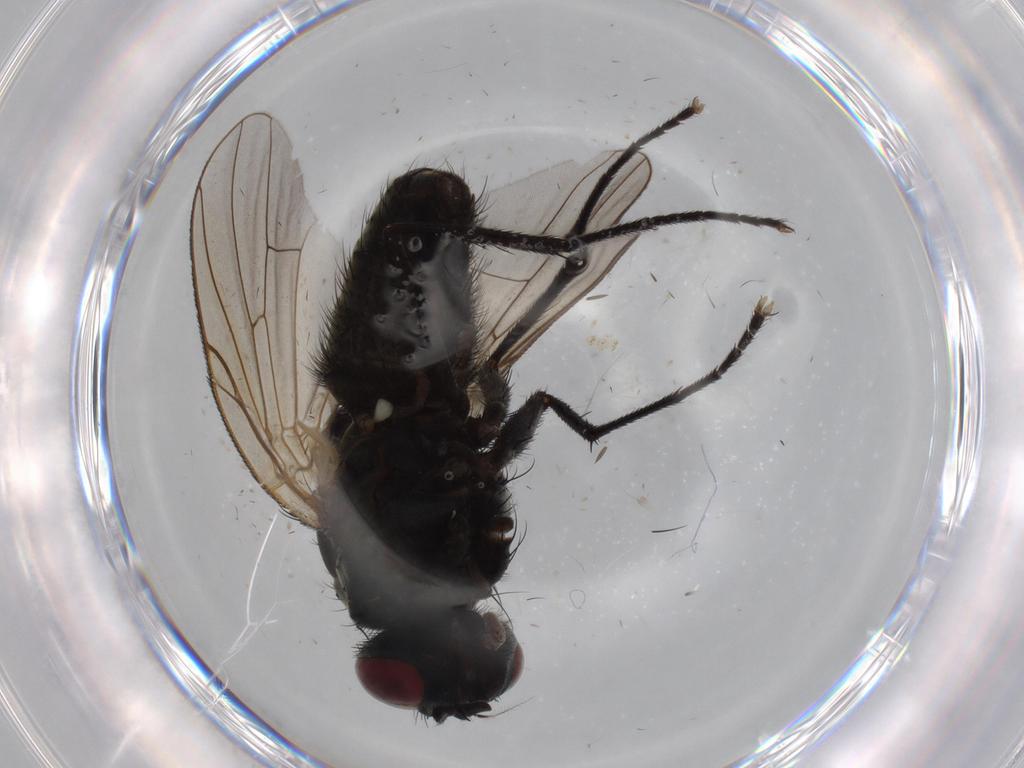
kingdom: Animalia
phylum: Arthropoda
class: Insecta
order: Diptera
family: Muscidae
